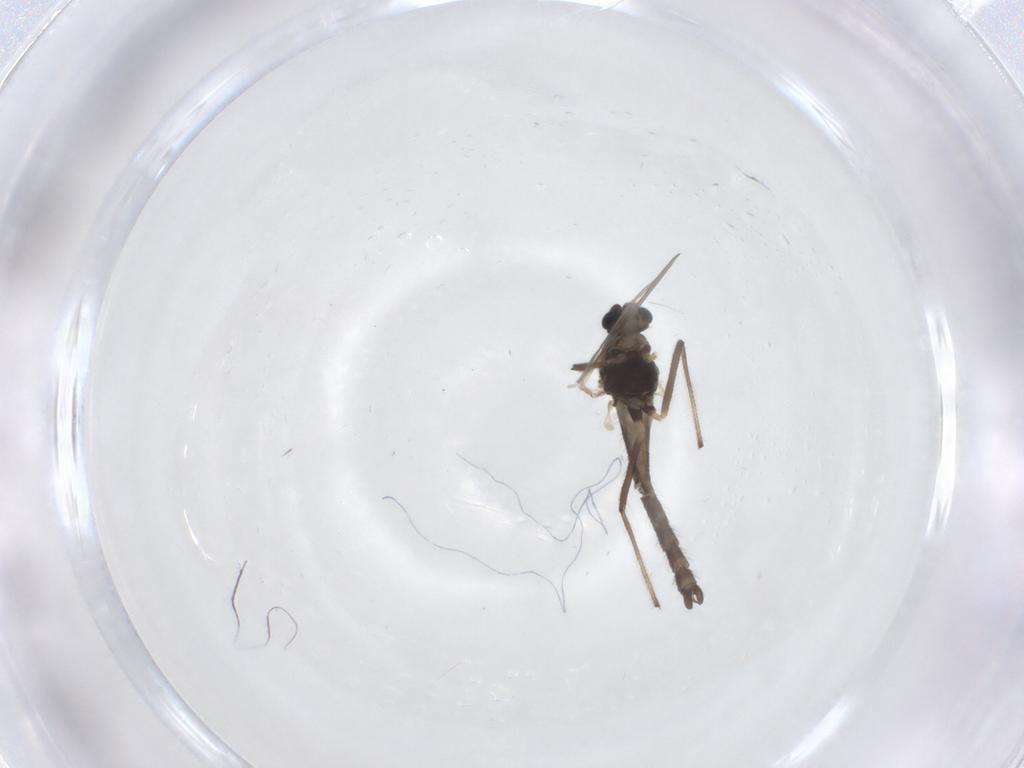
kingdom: Animalia
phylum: Arthropoda
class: Insecta
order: Diptera
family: Chironomidae
